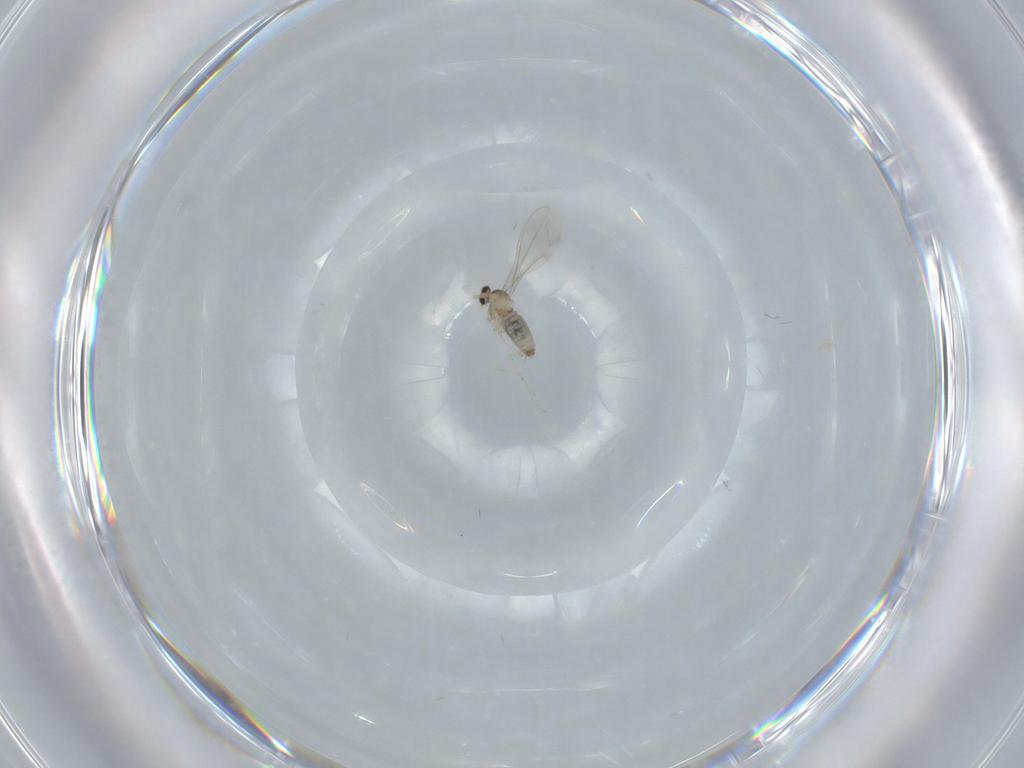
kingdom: Animalia
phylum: Arthropoda
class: Insecta
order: Diptera
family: Cecidomyiidae
